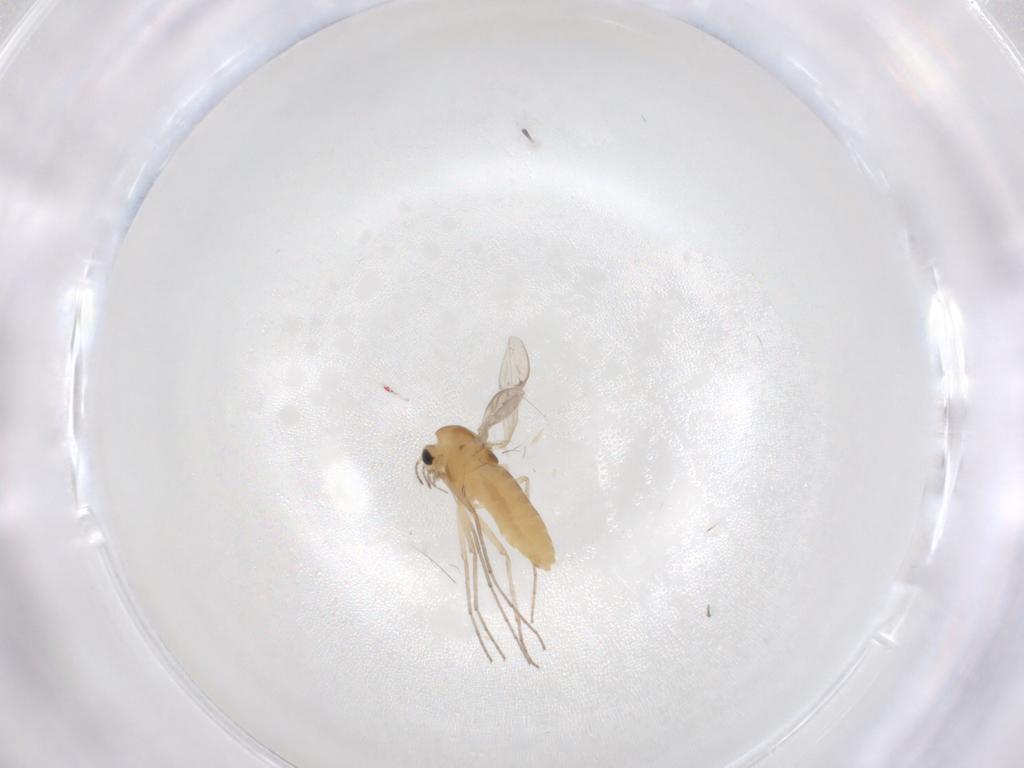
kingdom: Animalia
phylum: Arthropoda
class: Insecta
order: Diptera
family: Chironomidae
